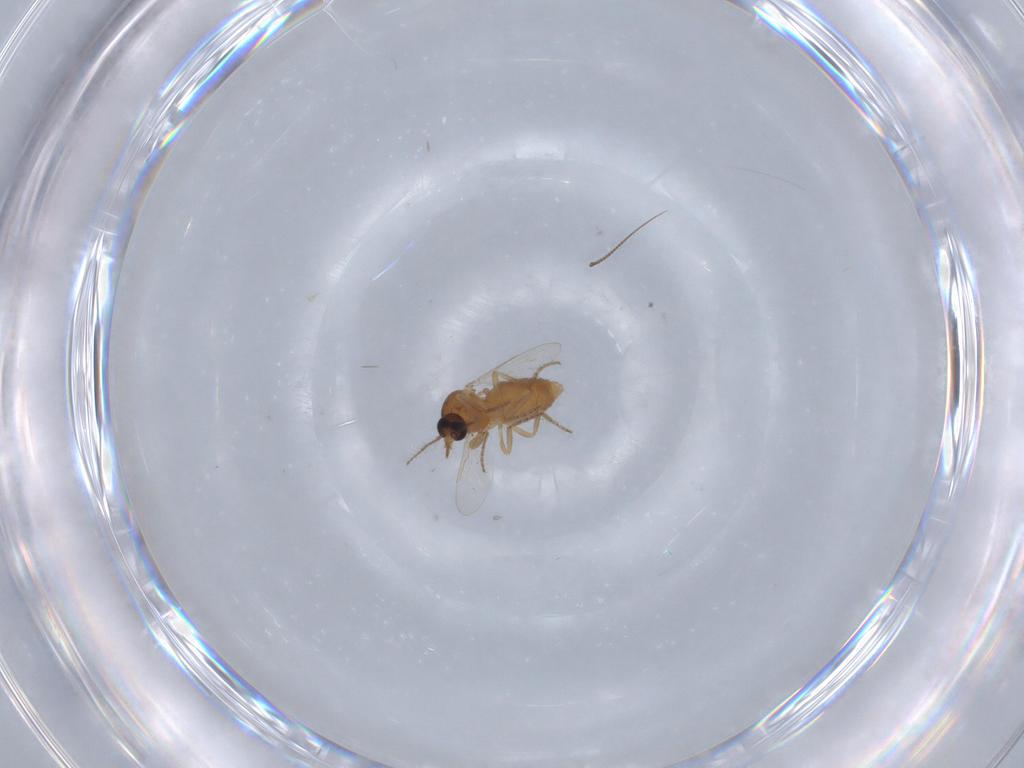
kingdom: Animalia
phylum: Arthropoda
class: Insecta
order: Diptera
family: Ceratopogonidae
